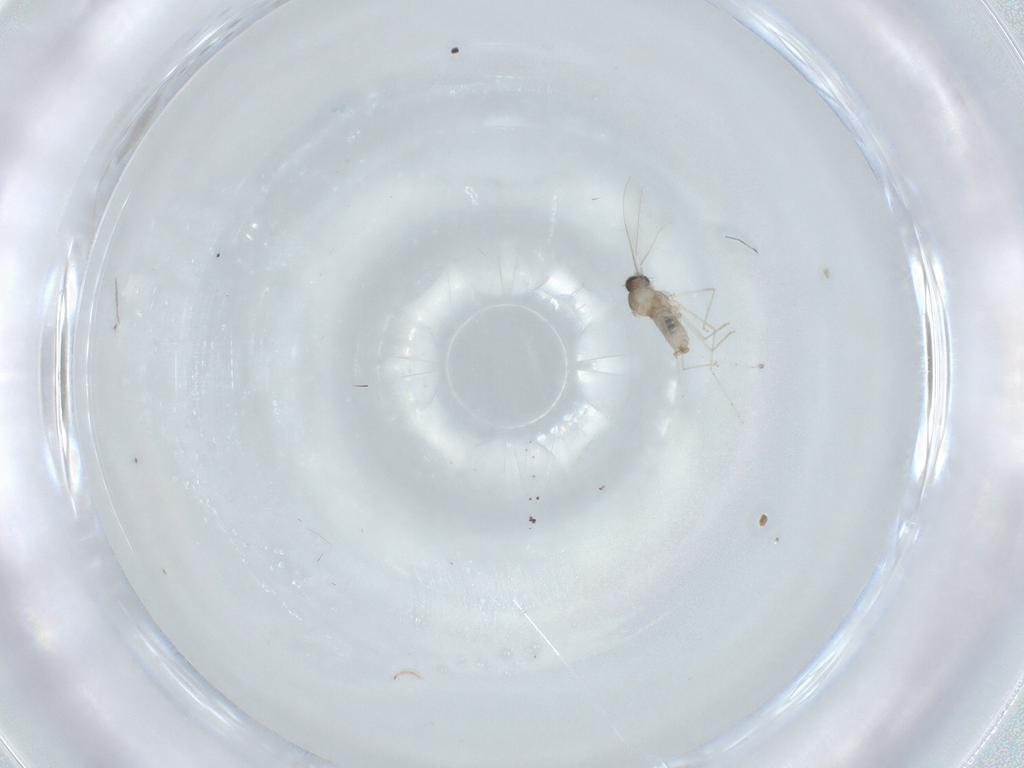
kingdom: Animalia
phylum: Arthropoda
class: Insecta
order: Diptera
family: Cecidomyiidae
